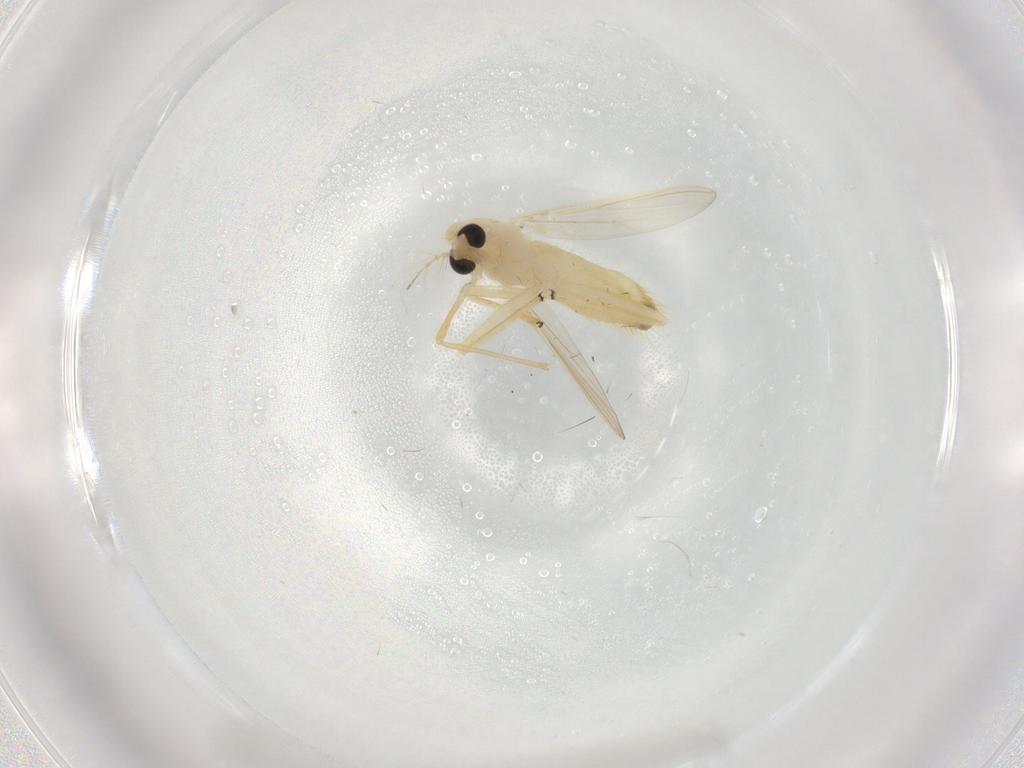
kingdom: Animalia
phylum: Arthropoda
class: Insecta
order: Diptera
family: Chironomidae
